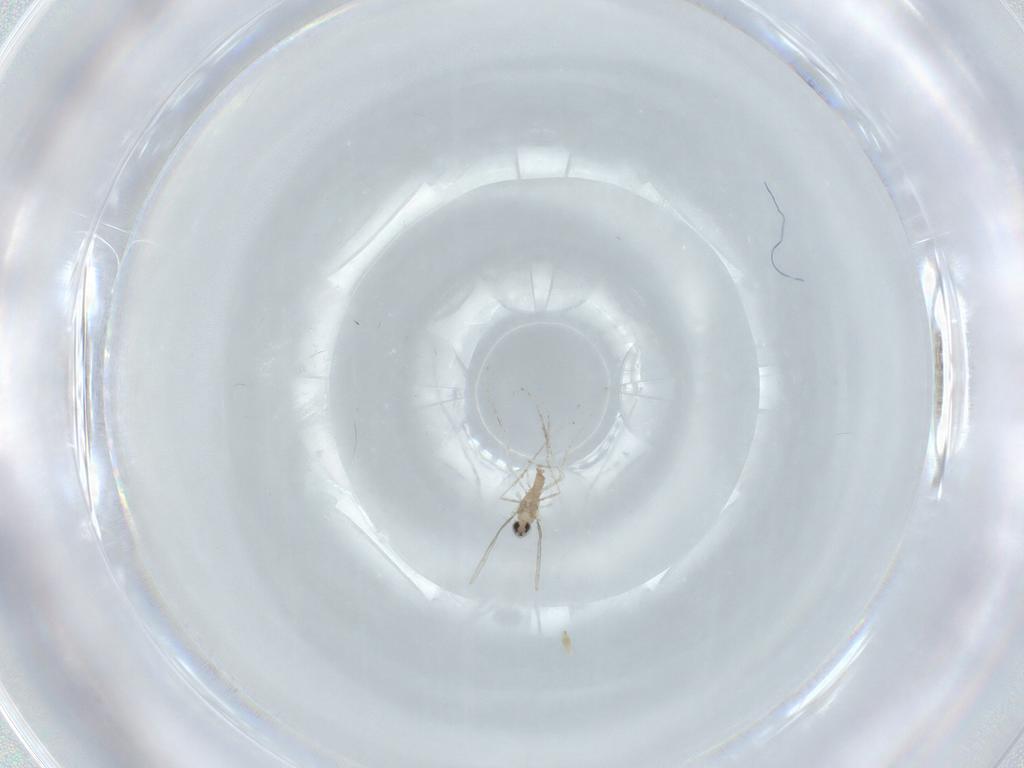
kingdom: Animalia
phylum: Arthropoda
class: Insecta
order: Diptera
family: Cecidomyiidae
